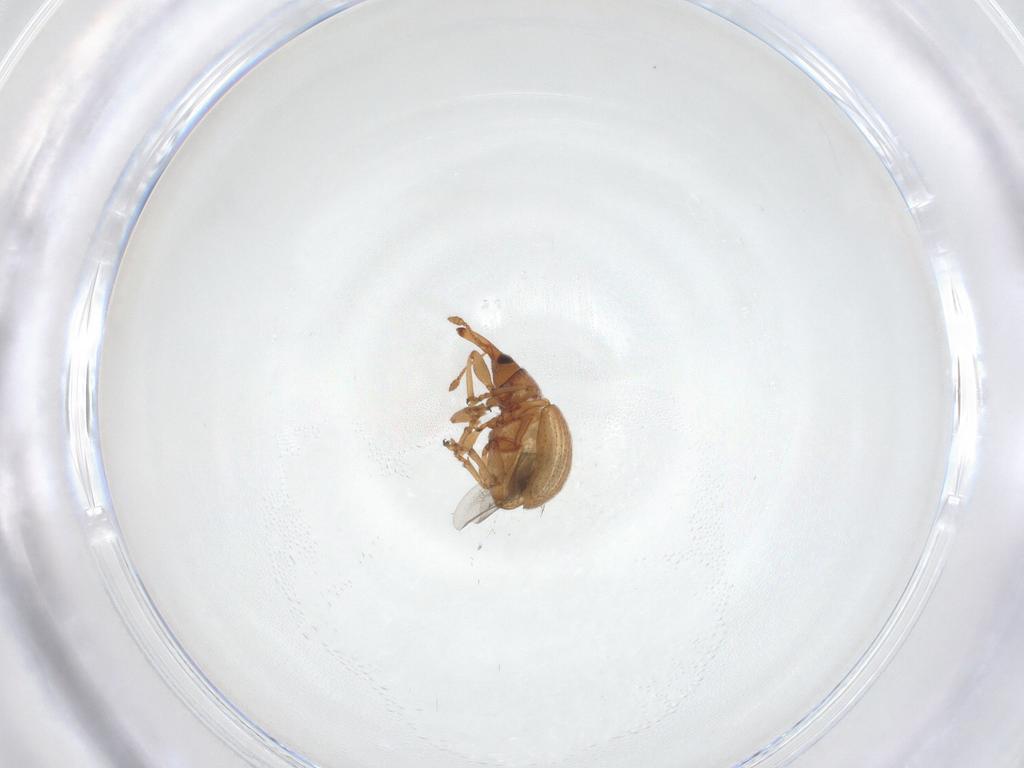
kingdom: Animalia
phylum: Arthropoda
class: Insecta
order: Coleoptera
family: Brentidae
